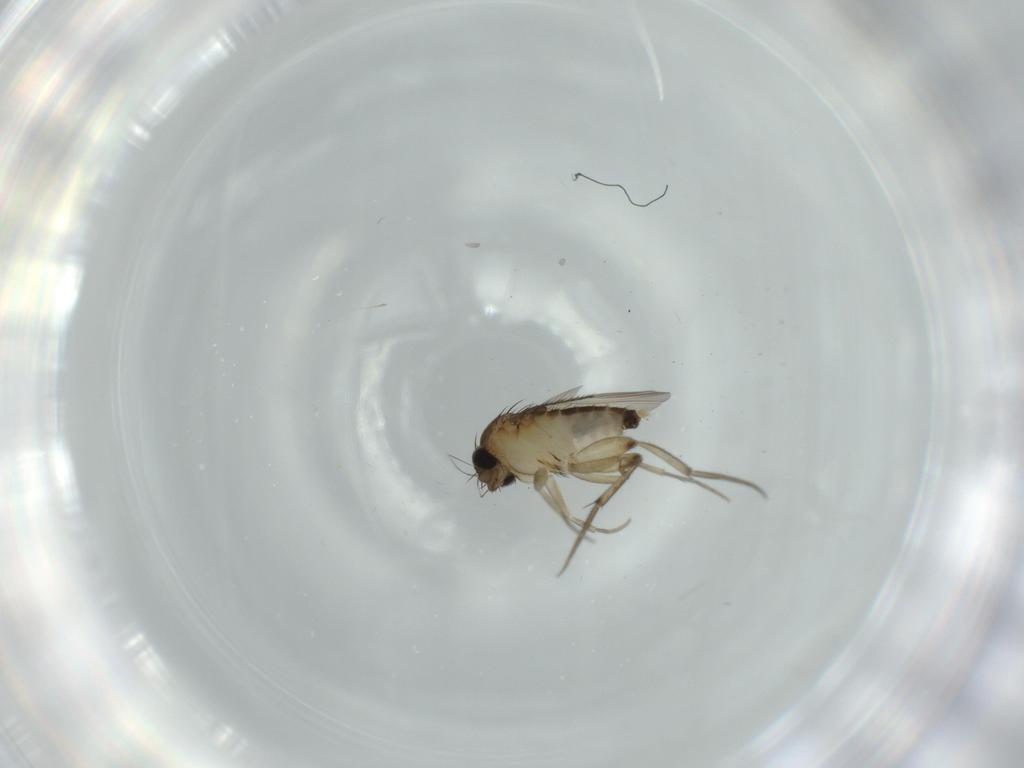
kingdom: Animalia
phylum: Arthropoda
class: Insecta
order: Diptera
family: Phoridae
